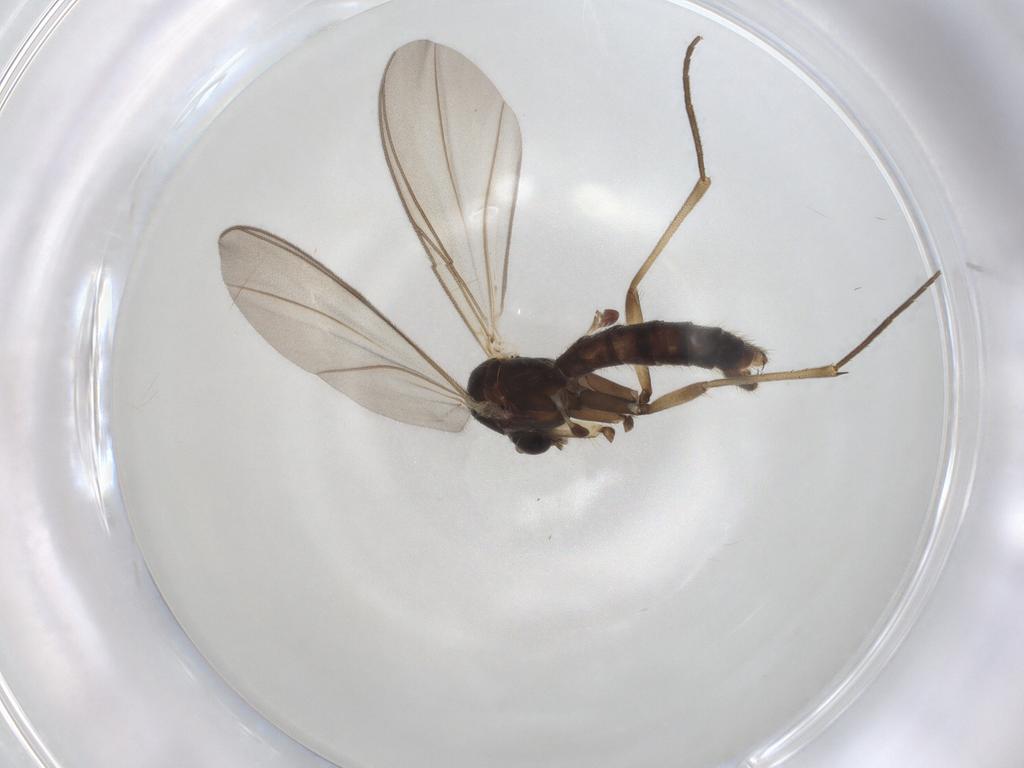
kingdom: Animalia
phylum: Arthropoda
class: Insecta
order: Diptera
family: Mycetophilidae
